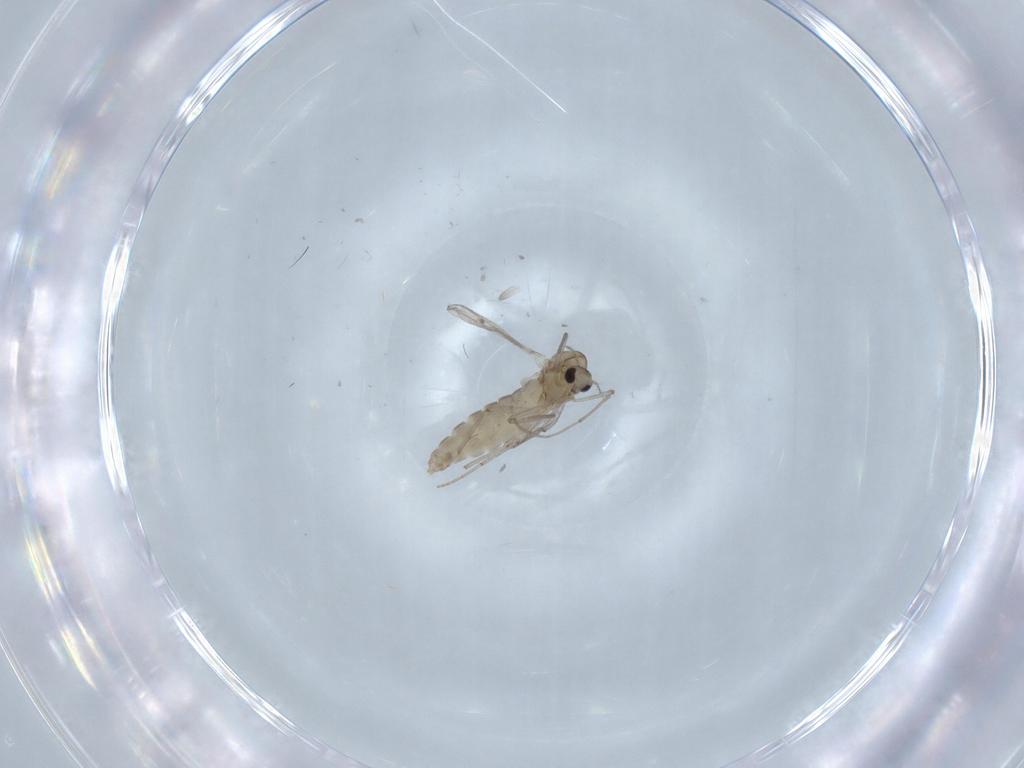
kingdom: Animalia
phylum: Arthropoda
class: Insecta
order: Diptera
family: Chironomidae
